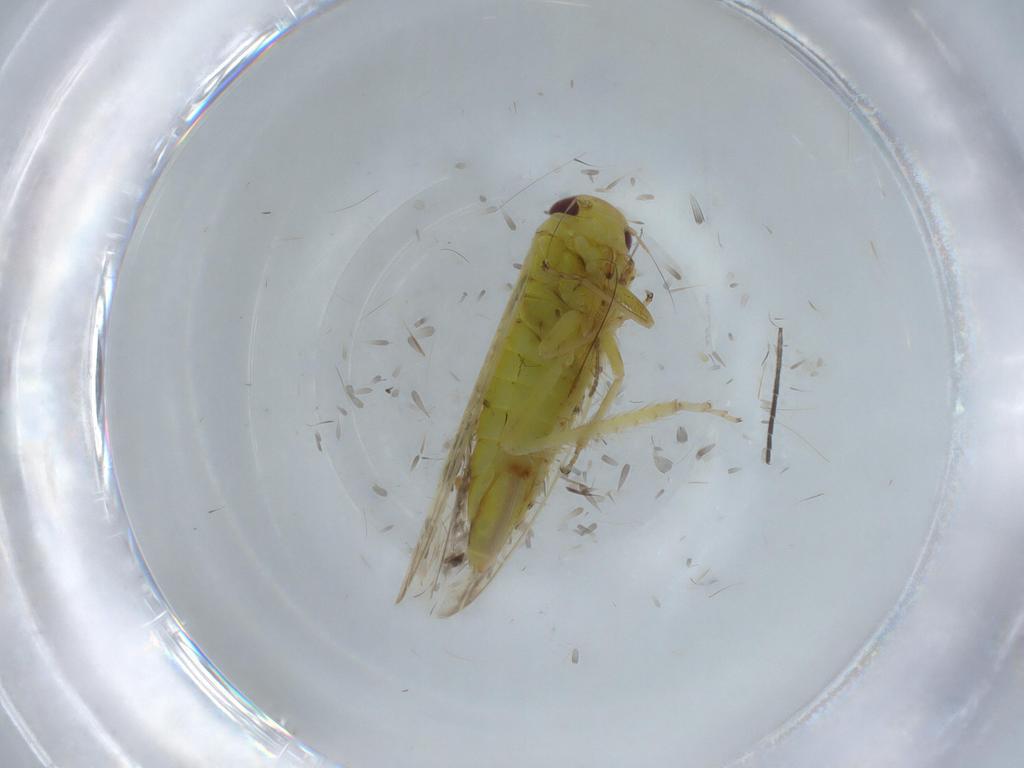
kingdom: Animalia
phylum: Arthropoda
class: Insecta
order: Hemiptera
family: Cicadellidae
